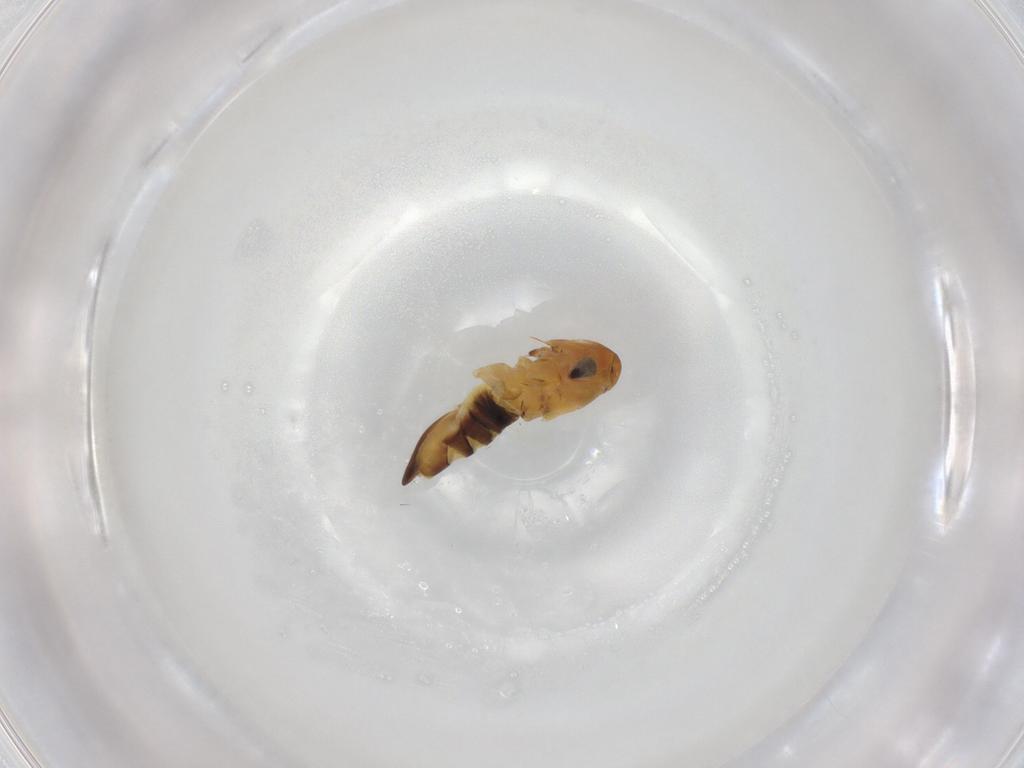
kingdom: Animalia
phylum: Arthropoda
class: Insecta
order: Hemiptera
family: Cicadellidae
